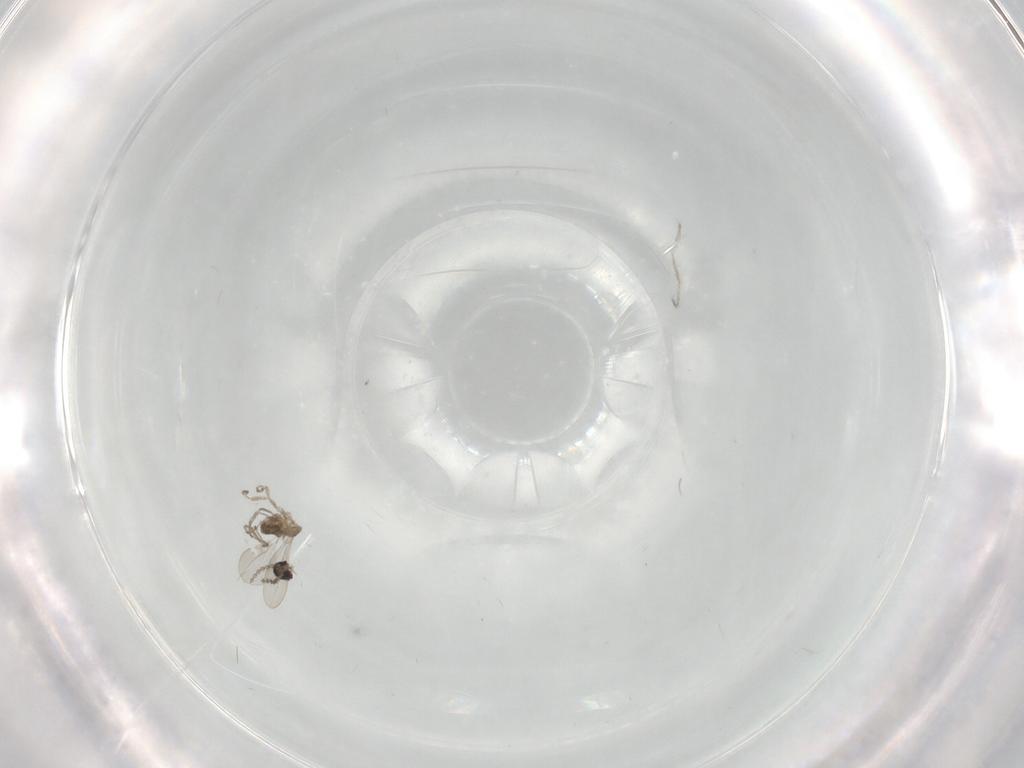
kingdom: Animalia
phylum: Arthropoda
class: Insecta
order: Diptera
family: Cecidomyiidae
